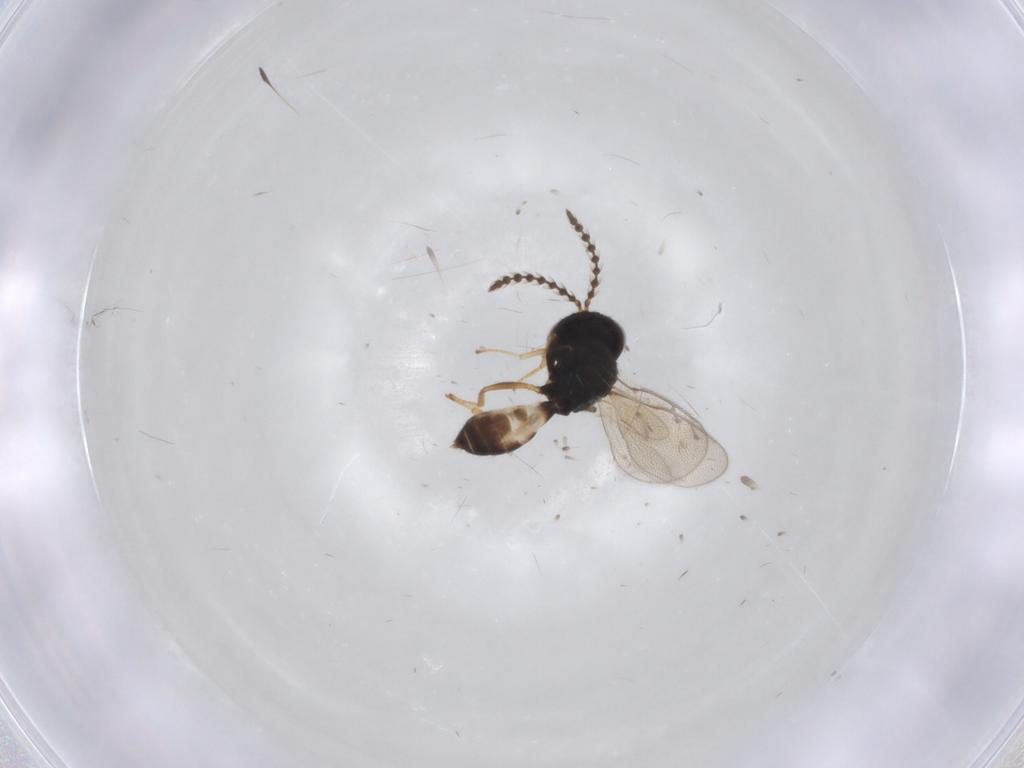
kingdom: Animalia
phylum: Arthropoda
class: Insecta
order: Hymenoptera
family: Pteromalidae
